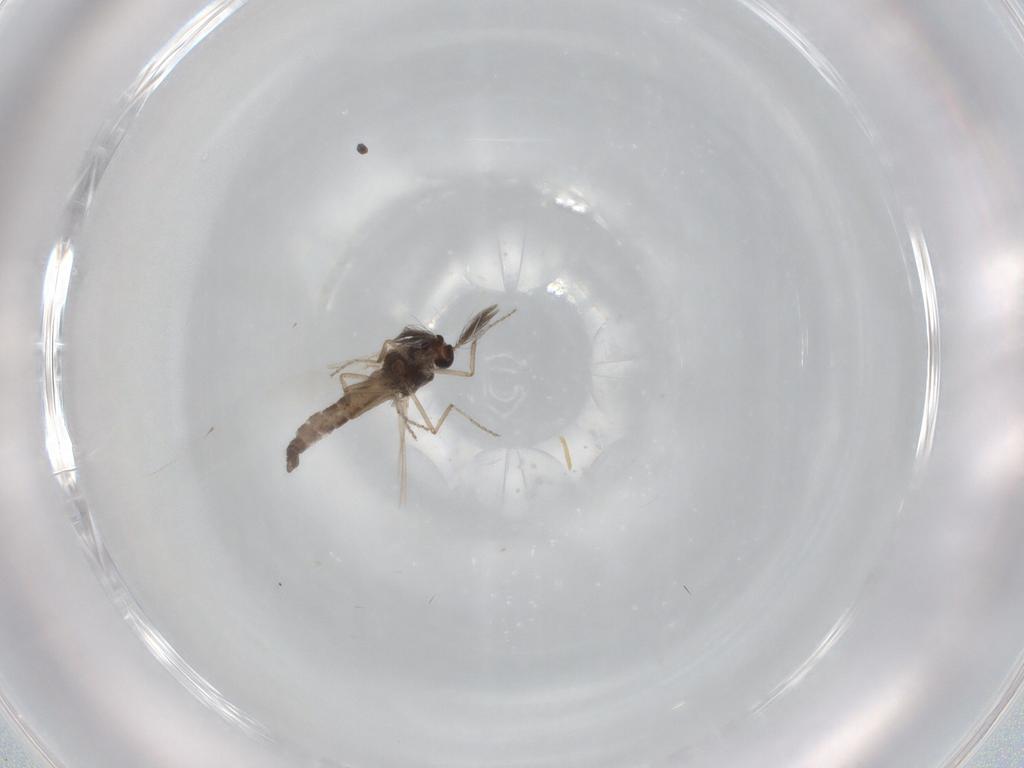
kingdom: Animalia
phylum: Arthropoda
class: Insecta
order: Diptera
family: Ceratopogonidae
